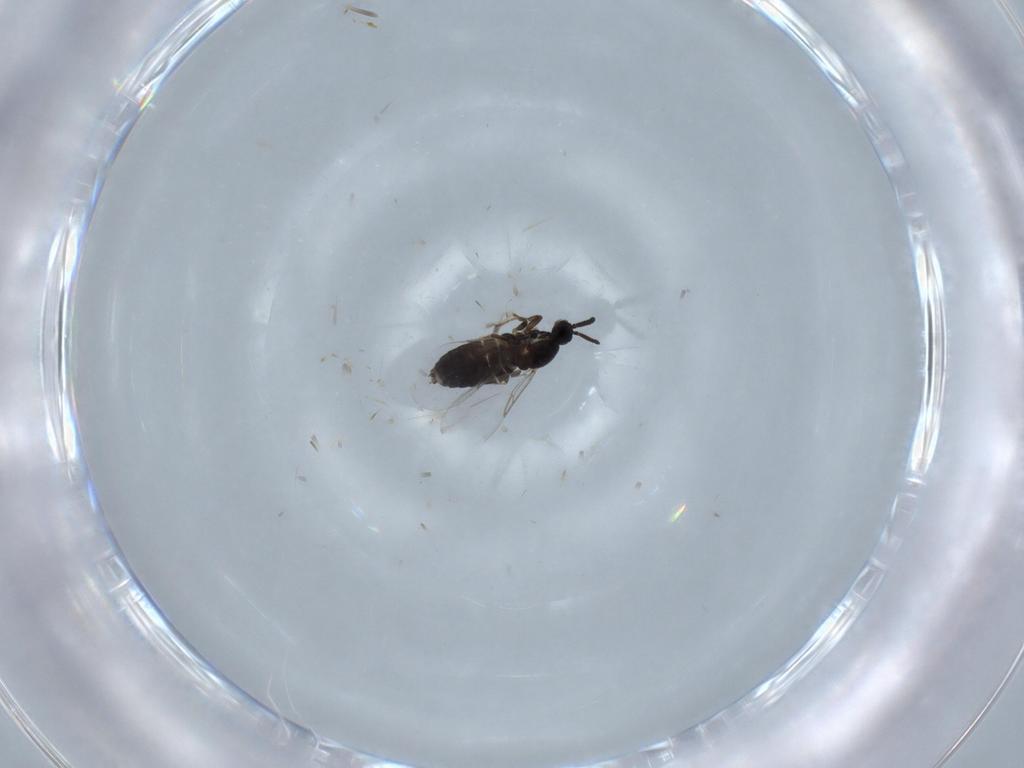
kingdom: Animalia
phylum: Arthropoda
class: Insecta
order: Diptera
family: Scatopsidae
